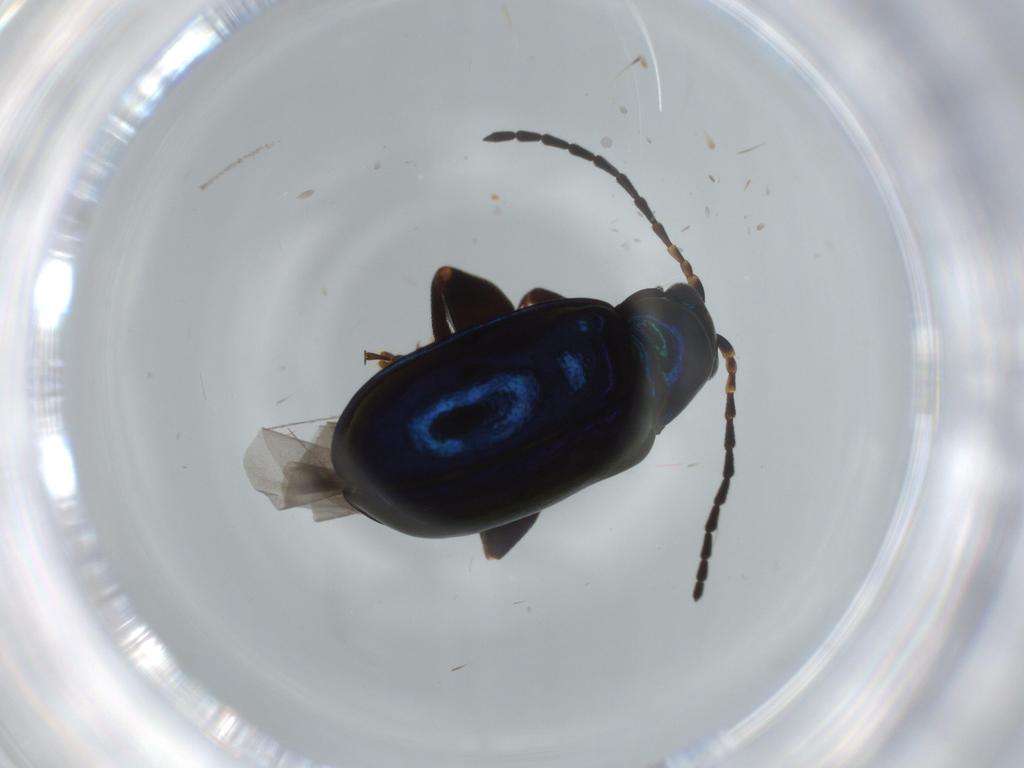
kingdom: Animalia
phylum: Arthropoda
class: Insecta
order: Coleoptera
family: Chrysomelidae
